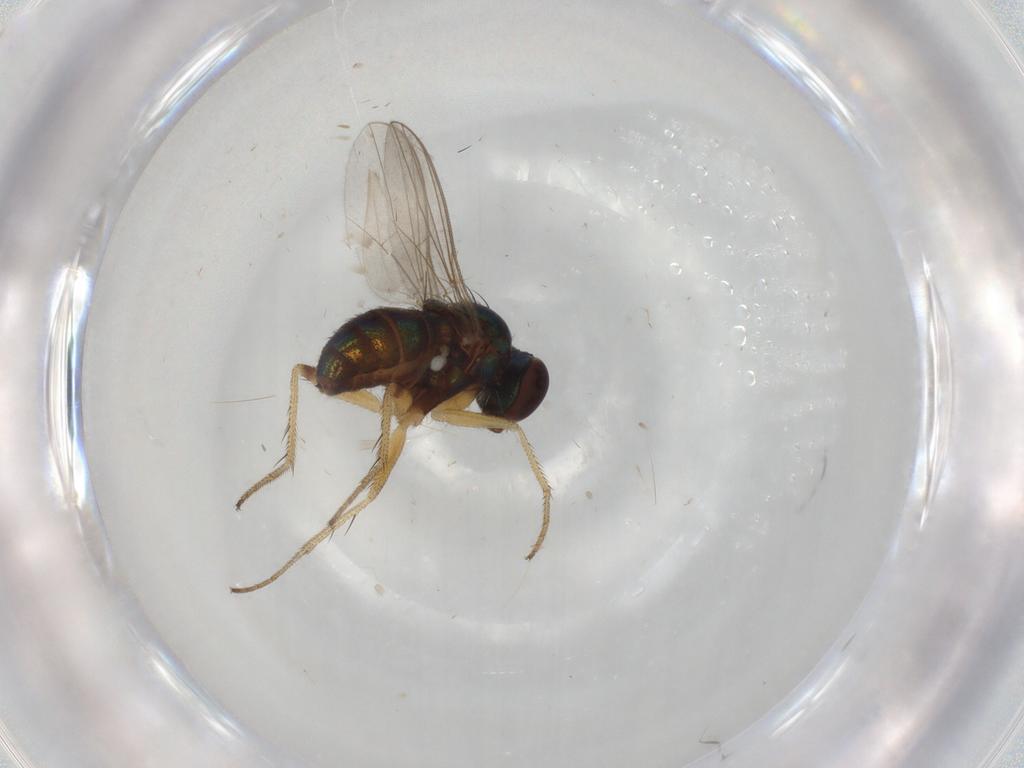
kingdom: Animalia
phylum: Arthropoda
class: Insecta
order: Diptera
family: Cecidomyiidae
